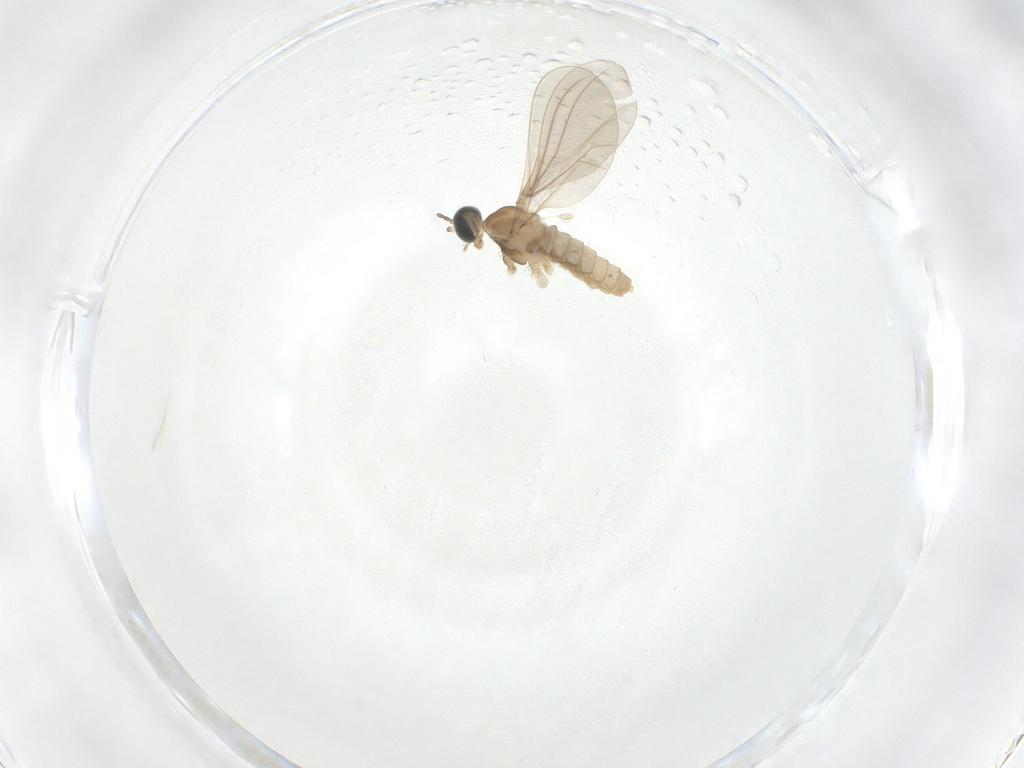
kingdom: Animalia
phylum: Arthropoda
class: Insecta
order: Diptera
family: Cecidomyiidae
